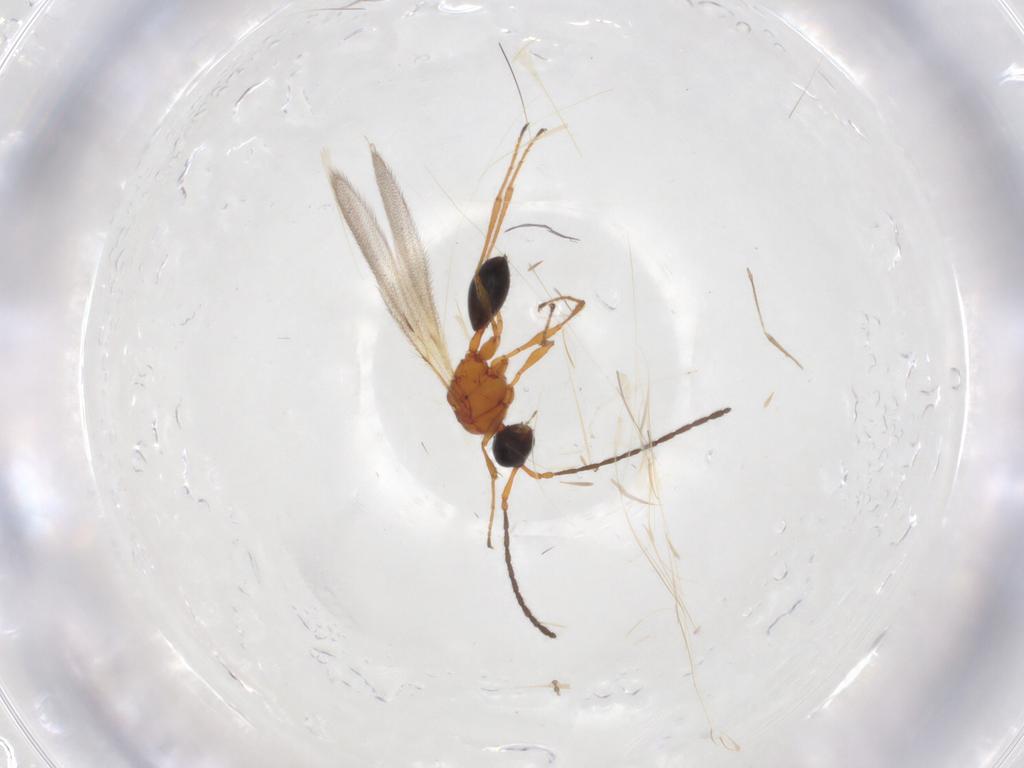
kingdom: Animalia
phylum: Arthropoda
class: Insecta
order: Hymenoptera
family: Diapriidae
